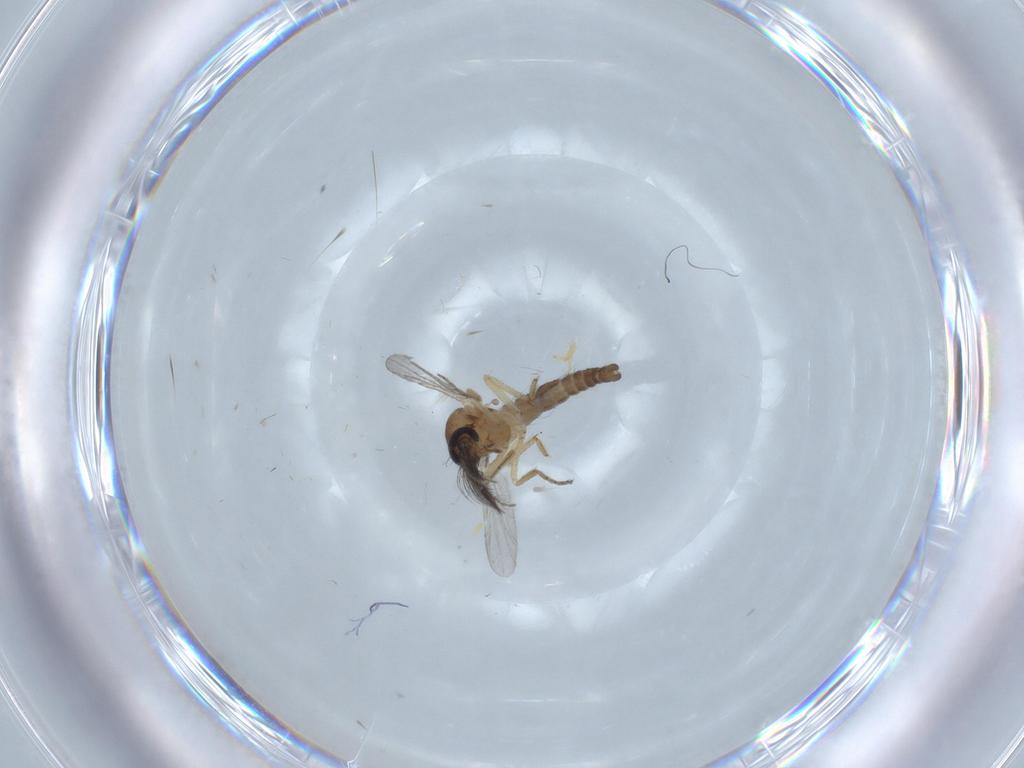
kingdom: Animalia
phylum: Arthropoda
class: Insecta
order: Diptera
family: Ceratopogonidae
